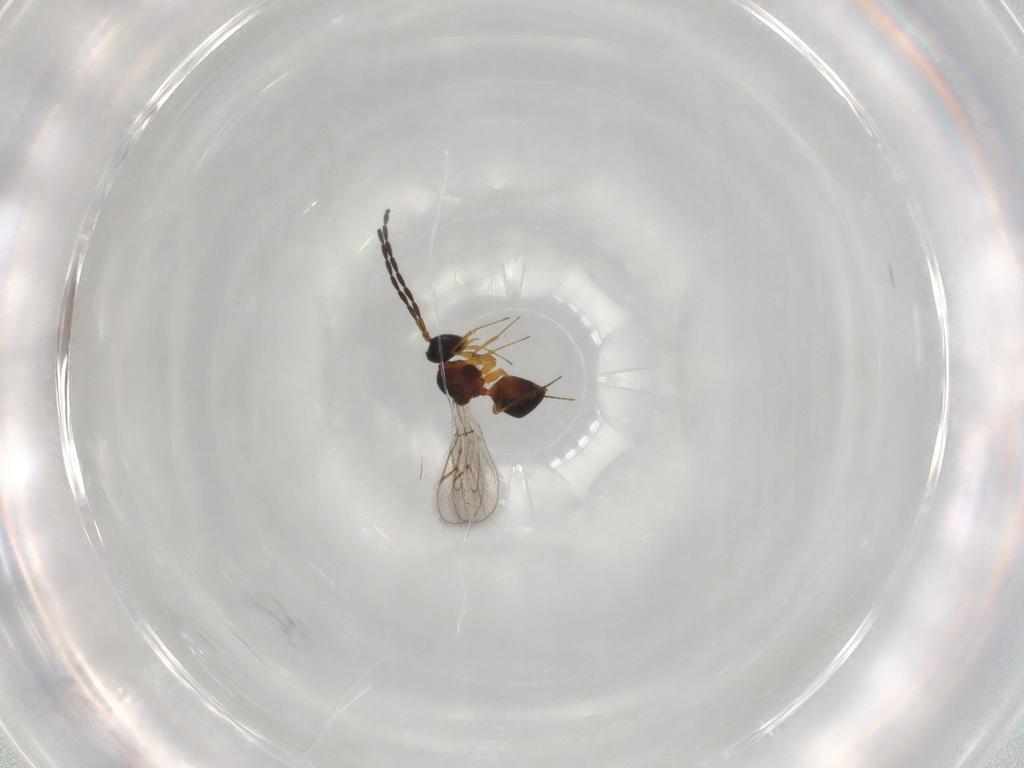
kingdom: Animalia
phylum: Arthropoda
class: Insecta
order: Hymenoptera
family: Figitidae
